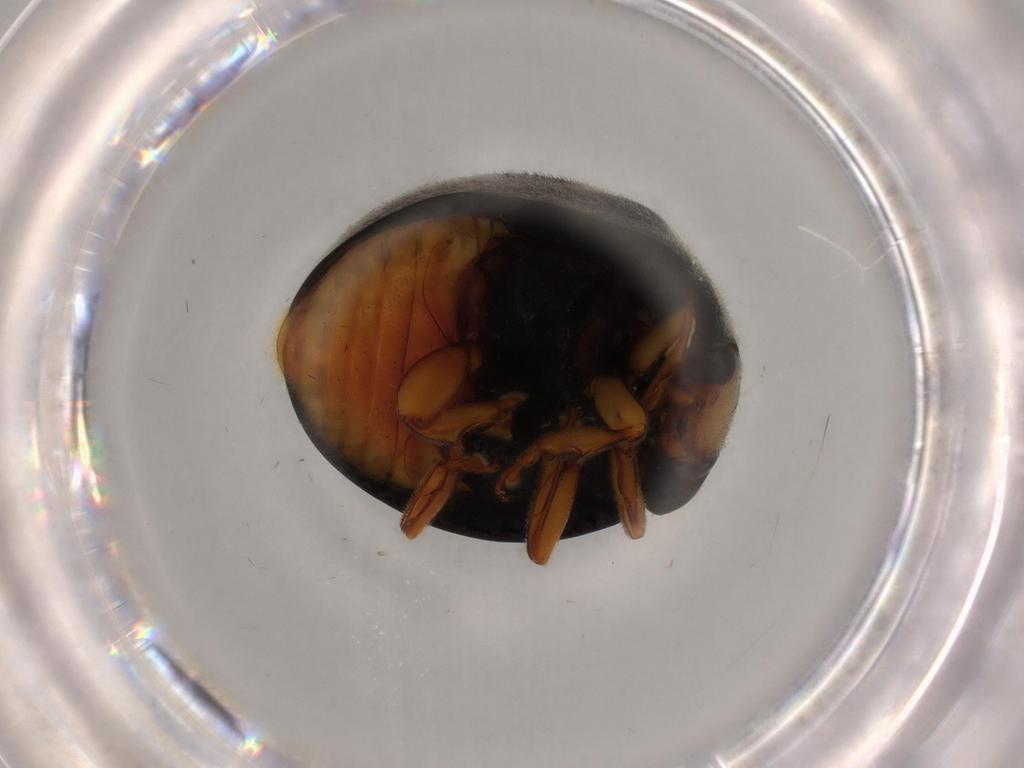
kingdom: Animalia
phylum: Arthropoda
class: Insecta
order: Coleoptera
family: Coccinellidae
